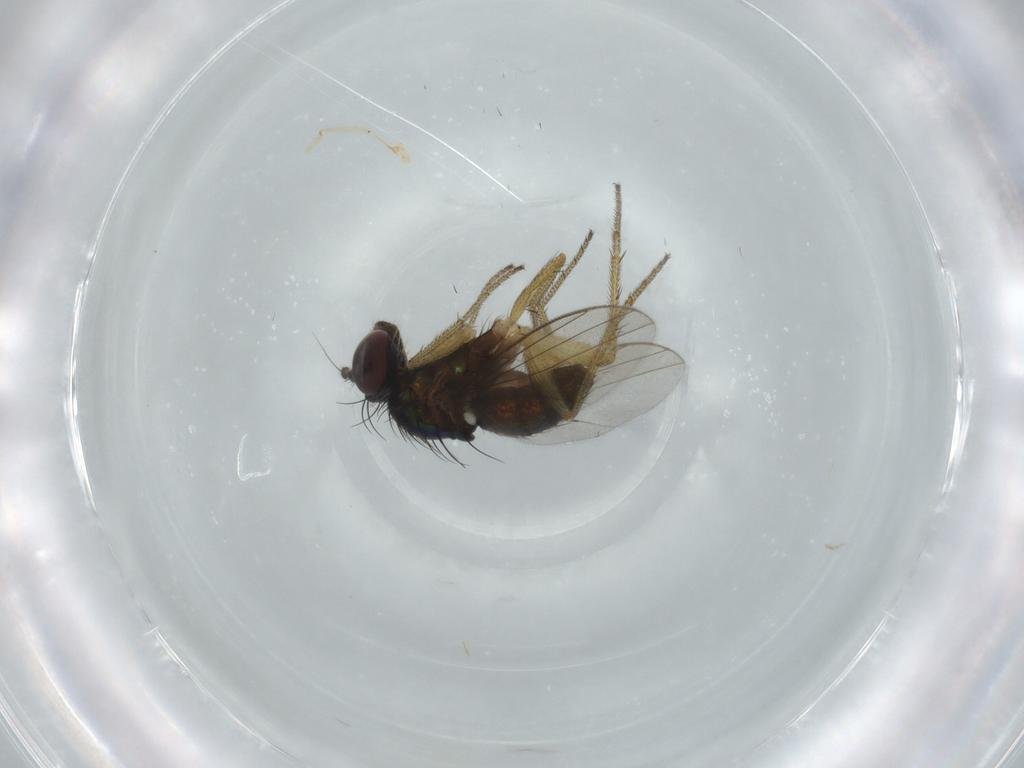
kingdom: Animalia
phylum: Arthropoda
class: Insecta
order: Diptera
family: Dolichopodidae
